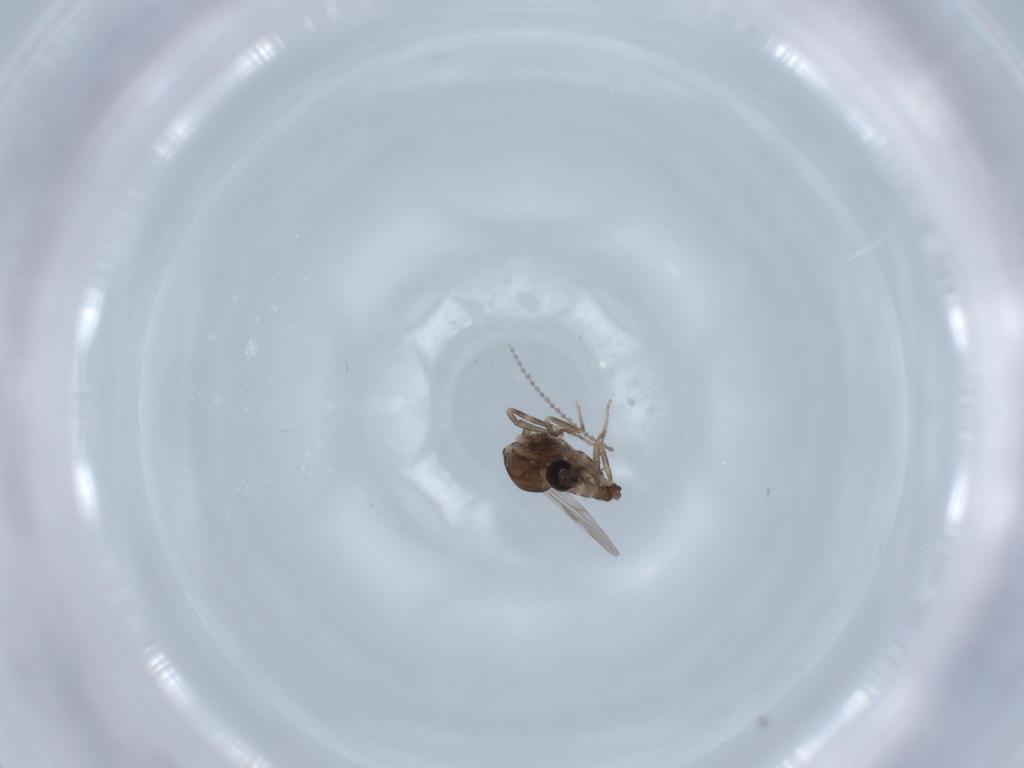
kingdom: Animalia
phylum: Arthropoda
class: Insecta
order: Diptera
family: Ceratopogonidae
